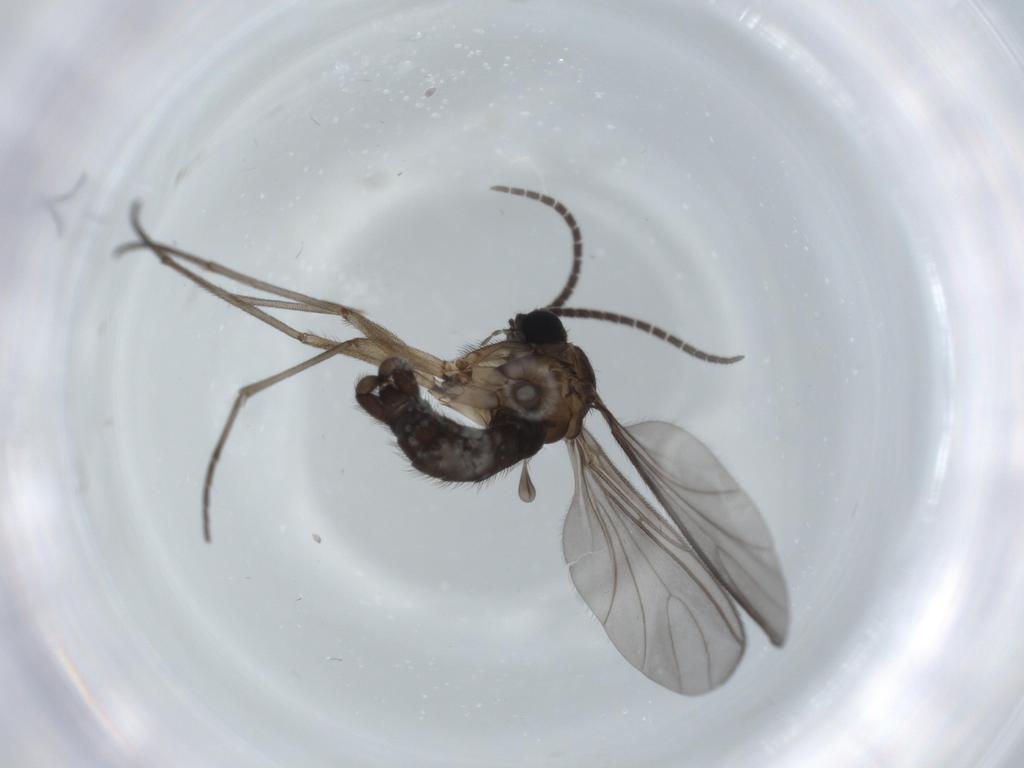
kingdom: Animalia
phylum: Arthropoda
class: Insecta
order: Diptera
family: Sciaridae
